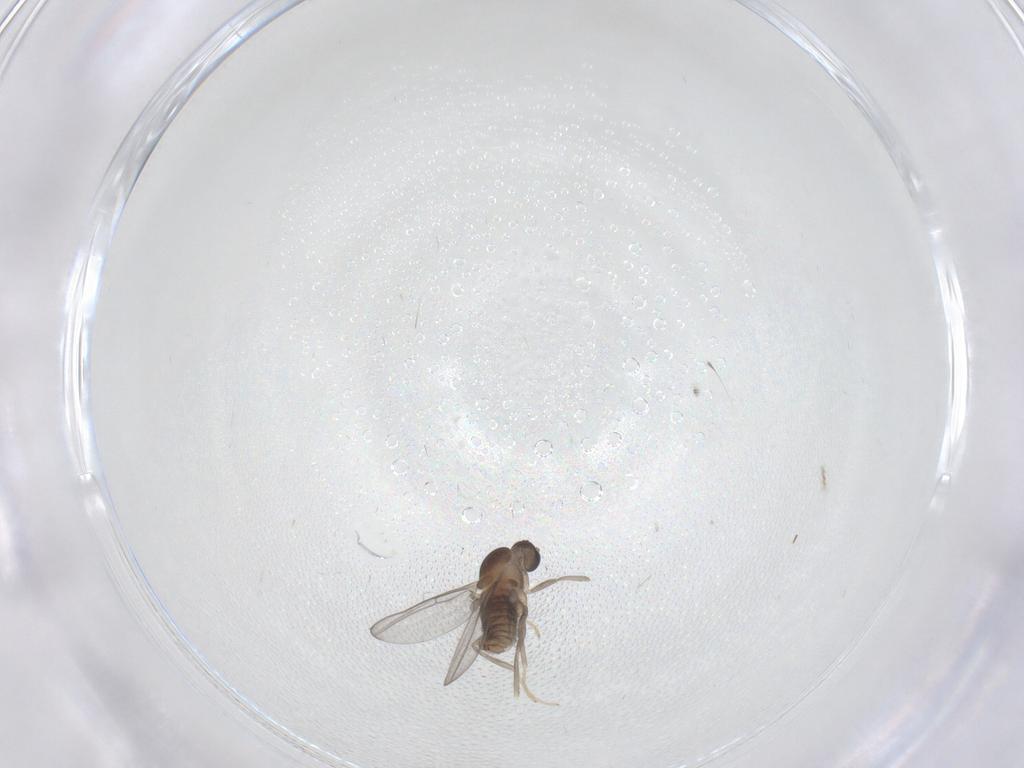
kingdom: Animalia
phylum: Arthropoda
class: Insecta
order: Diptera
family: Cecidomyiidae
